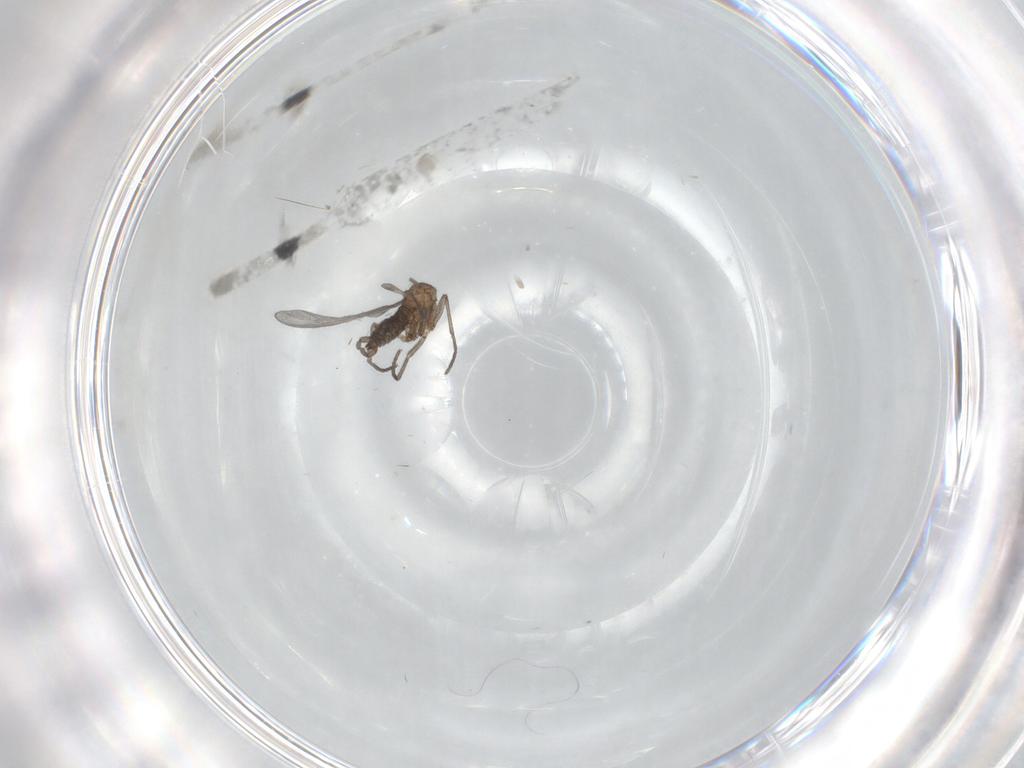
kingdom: Animalia
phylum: Arthropoda
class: Insecta
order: Diptera
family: Sciaridae
